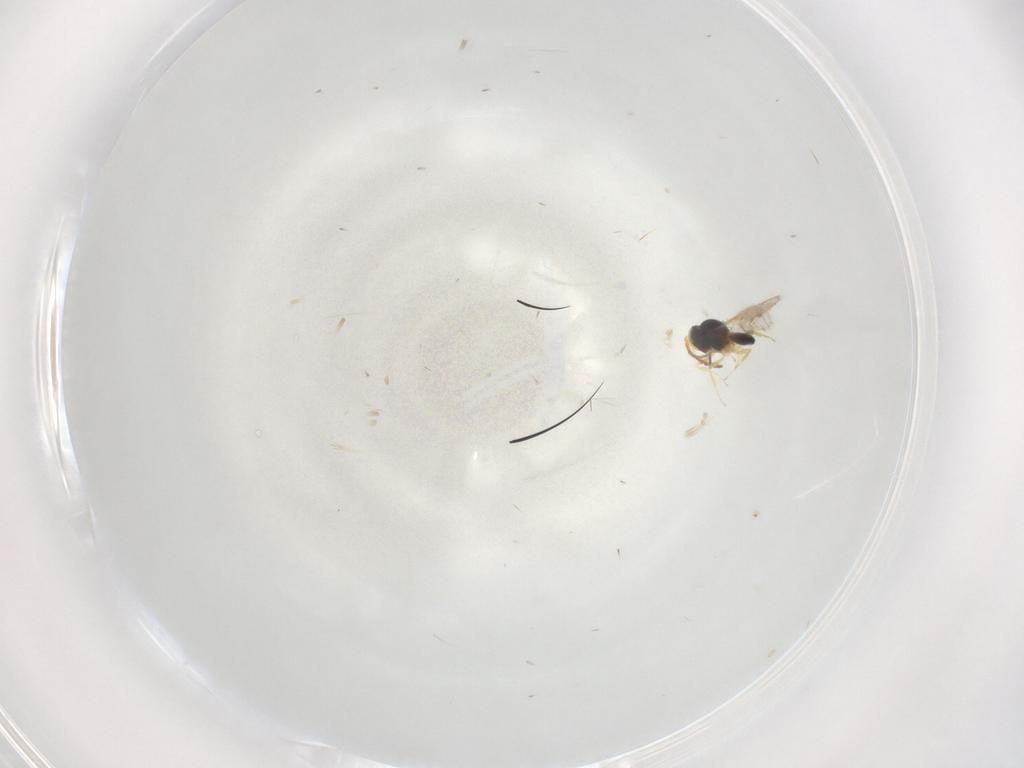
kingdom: Animalia
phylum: Arthropoda
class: Insecta
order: Hymenoptera
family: Scelionidae
